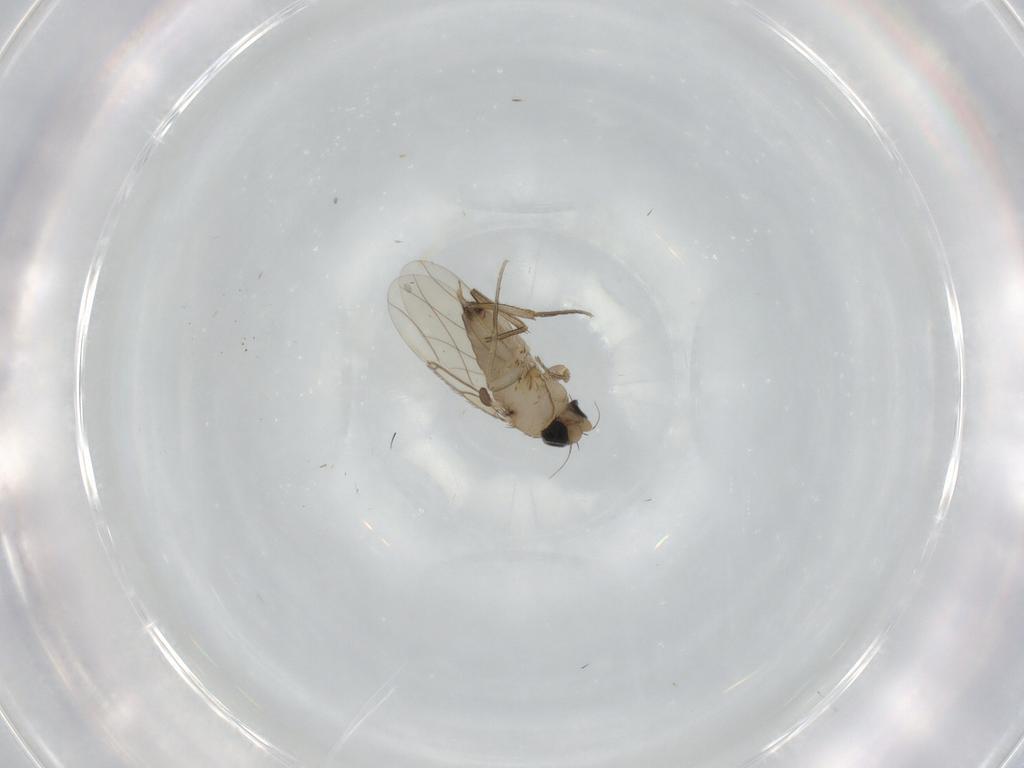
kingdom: Animalia
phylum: Arthropoda
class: Insecta
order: Diptera
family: Phoridae
